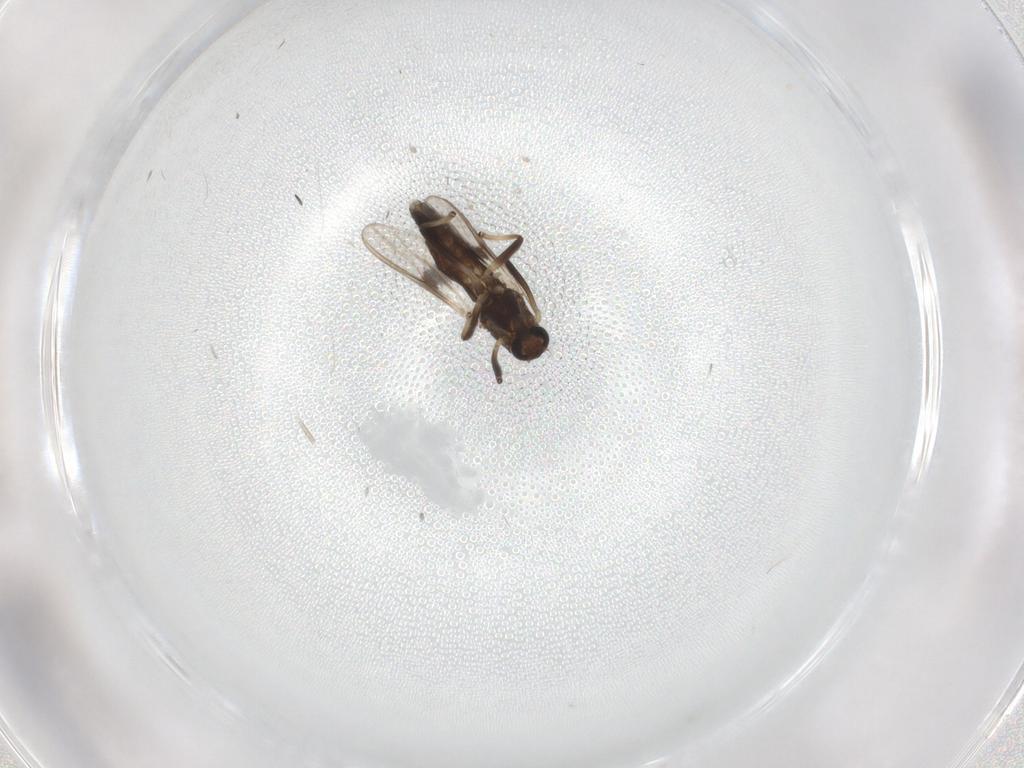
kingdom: Animalia
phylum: Arthropoda
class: Insecta
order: Diptera
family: Chironomidae
